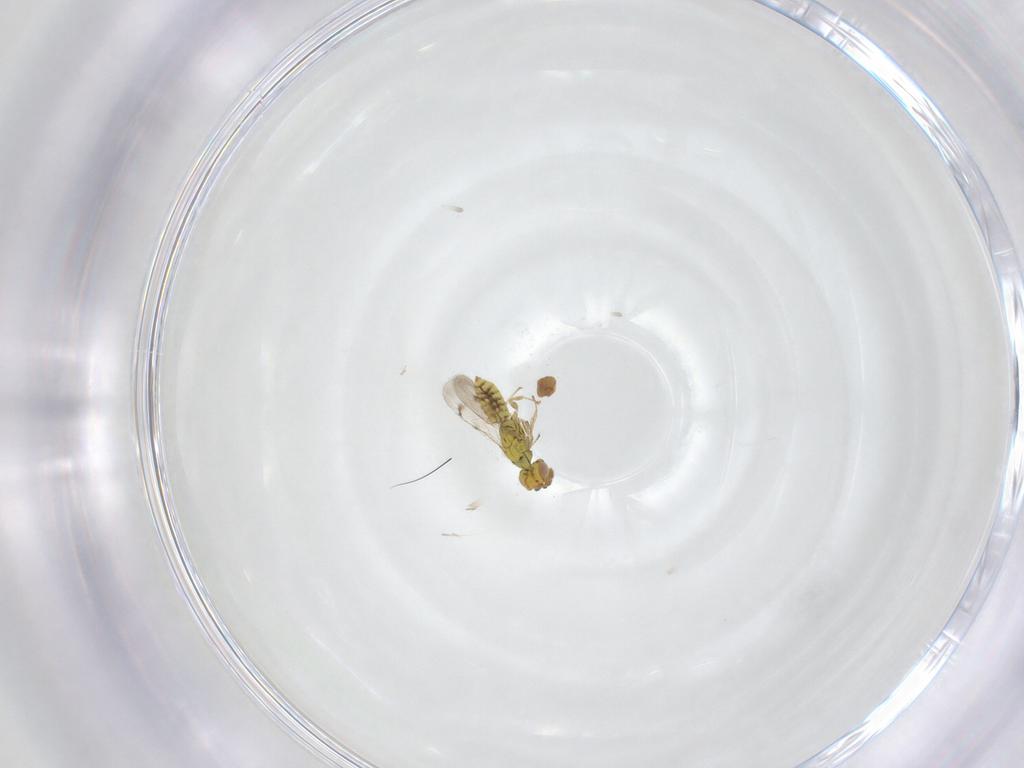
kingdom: Animalia
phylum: Arthropoda
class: Insecta
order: Hymenoptera
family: Eulophidae
